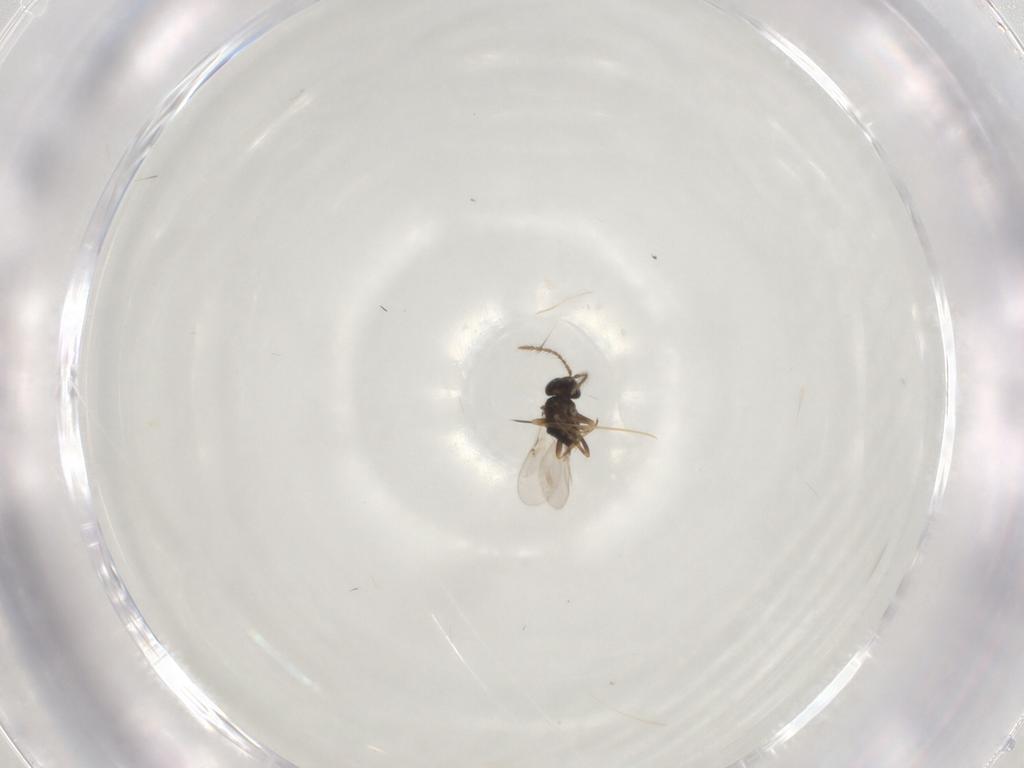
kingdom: Animalia
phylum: Arthropoda
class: Insecta
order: Hymenoptera
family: Encyrtidae
